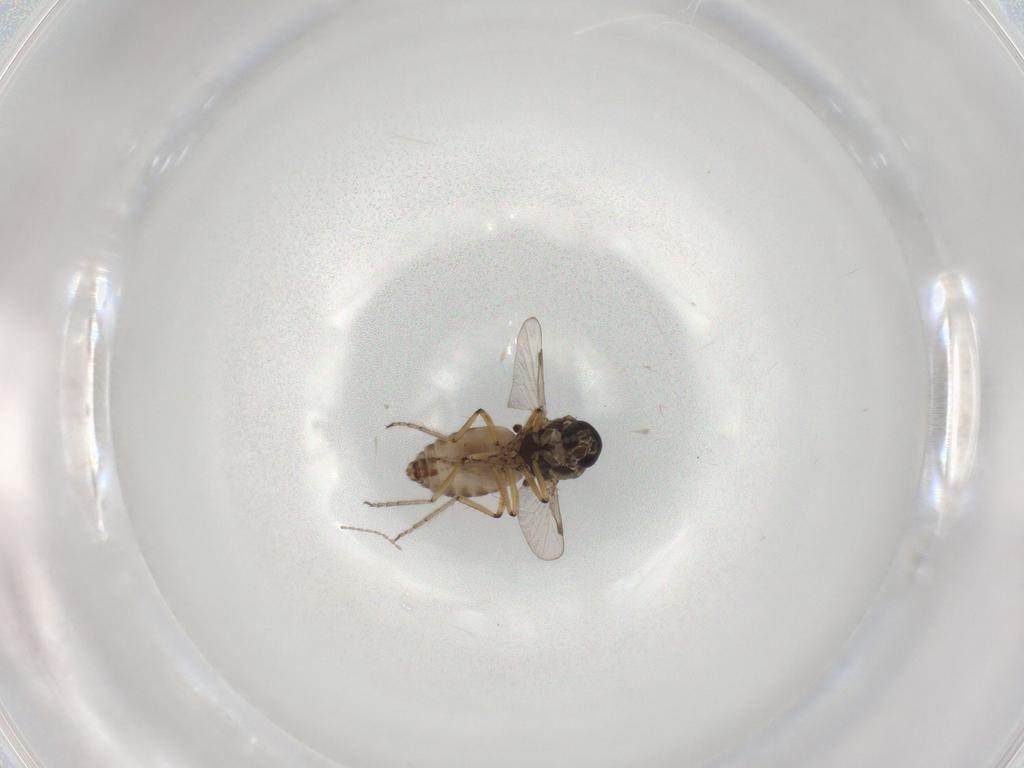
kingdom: Animalia
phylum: Arthropoda
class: Insecta
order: Diptera
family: Cecidomyiidae
